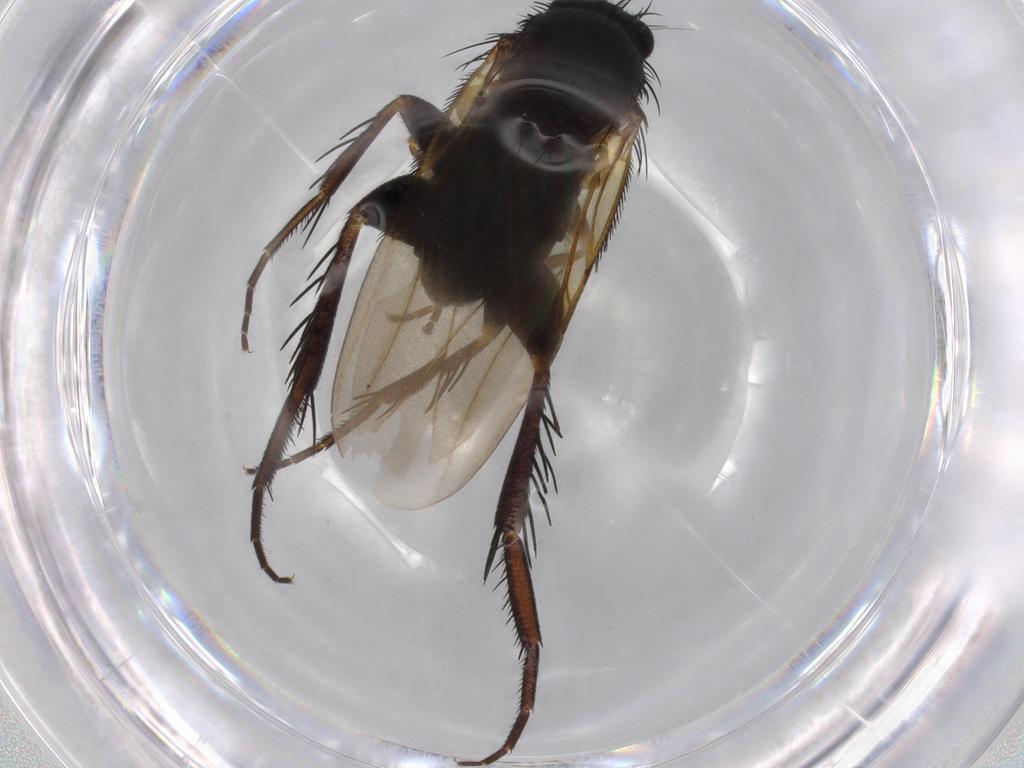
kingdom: Animalia
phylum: Arthropoda
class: Insecta
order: Diptera
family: Phoridae
